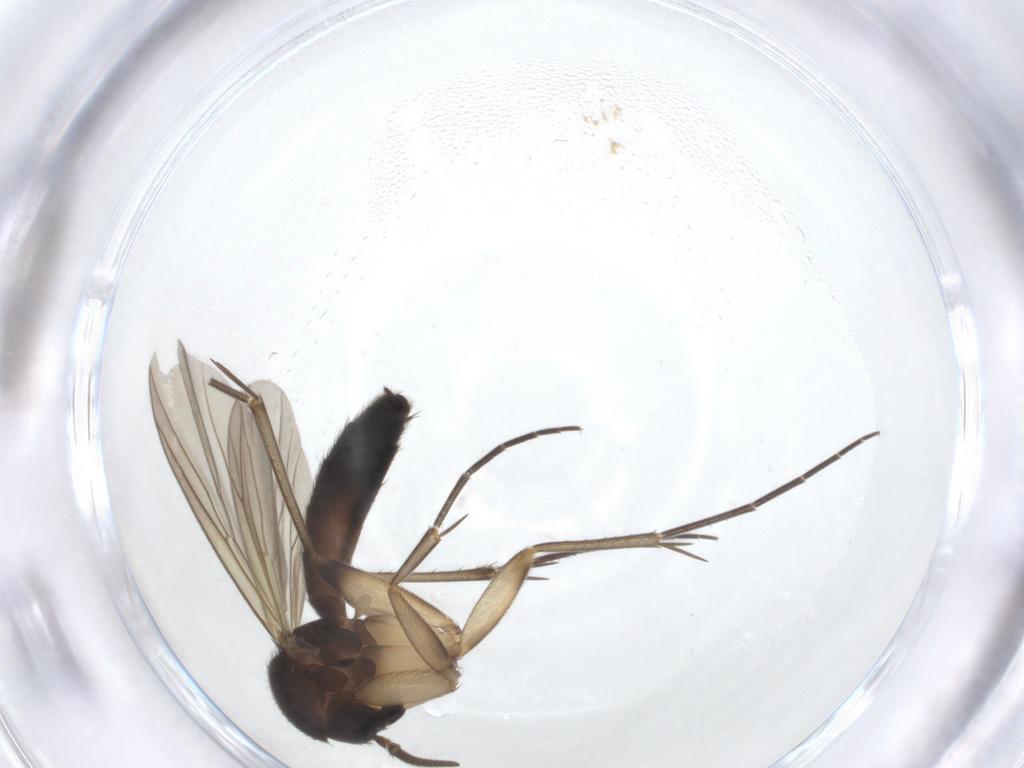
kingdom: Animalia
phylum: Arthropoda
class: Insecta
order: Diptera
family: Mycetophilidae
